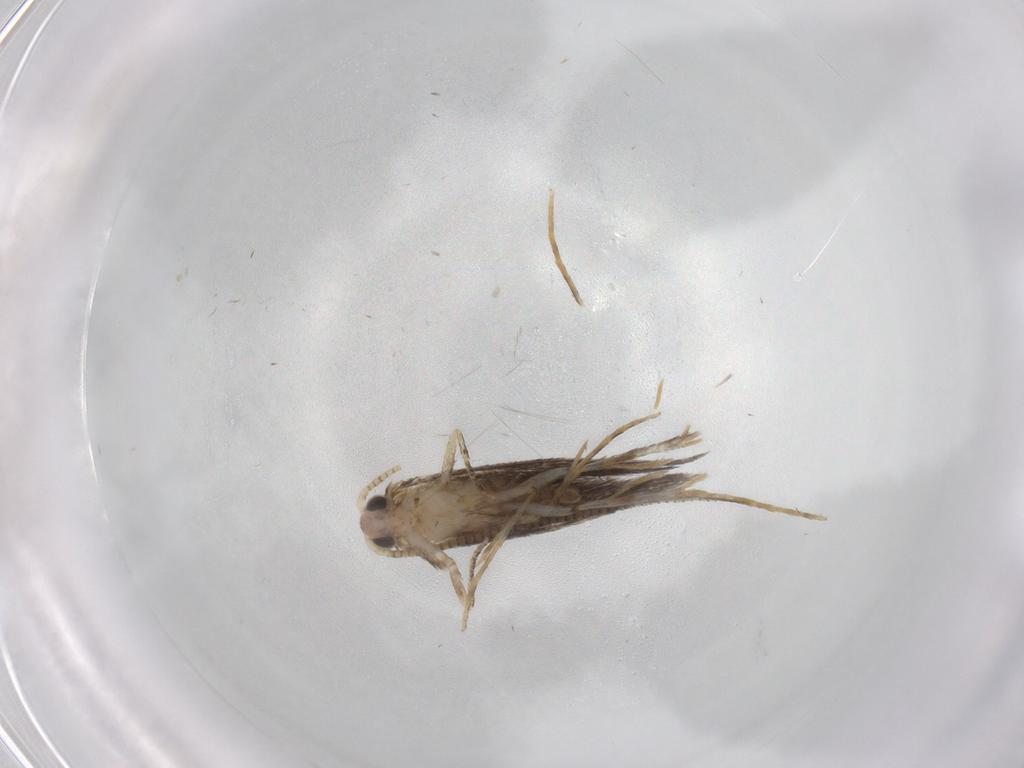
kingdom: Animalia
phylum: Arthropoda
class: Insecta
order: Lepidoptera
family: Tineidae
